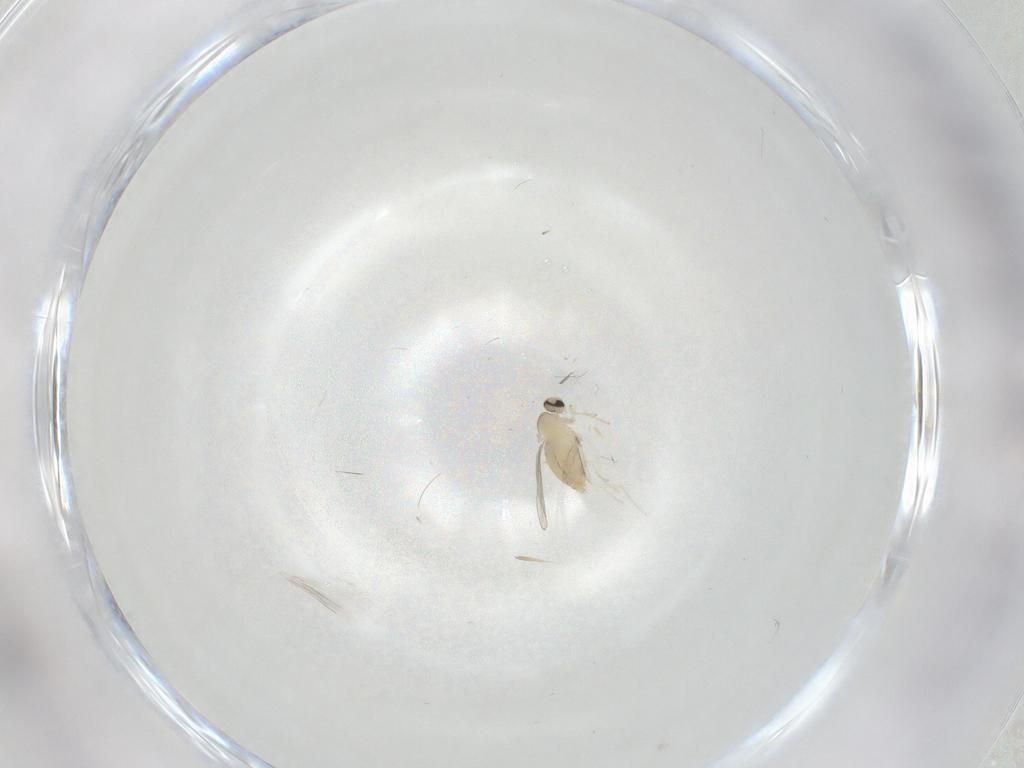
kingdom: Animalia
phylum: Arthropoda
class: Insecta
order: Diptera
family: Cecidomyiidae
